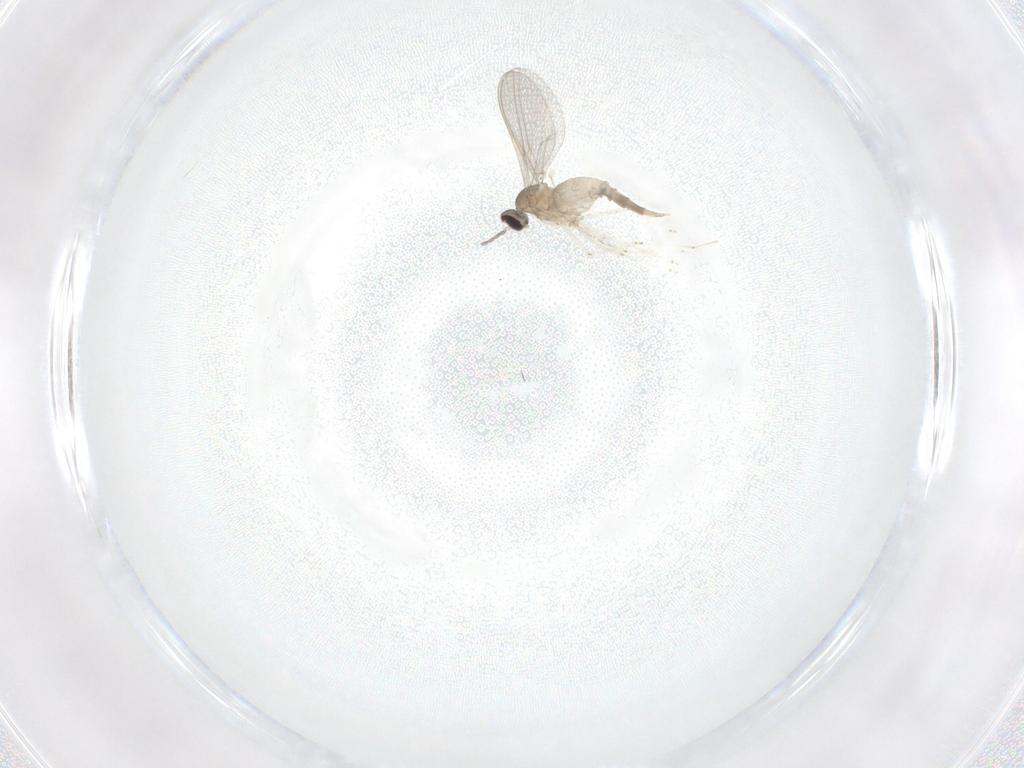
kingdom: Animalia
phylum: Arthropoda
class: Insecta
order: Diptera
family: Cecidomyiidae
